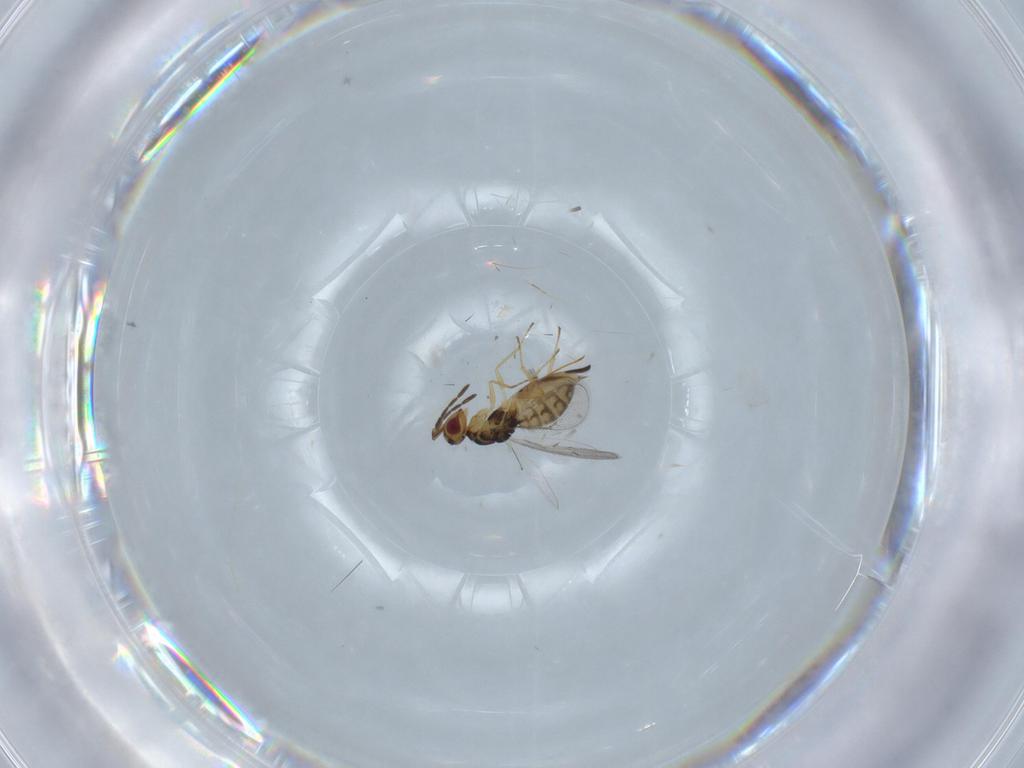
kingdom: Animalia
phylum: Arthropoda
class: Insecta
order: Hymenoptera
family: Eulophidae
